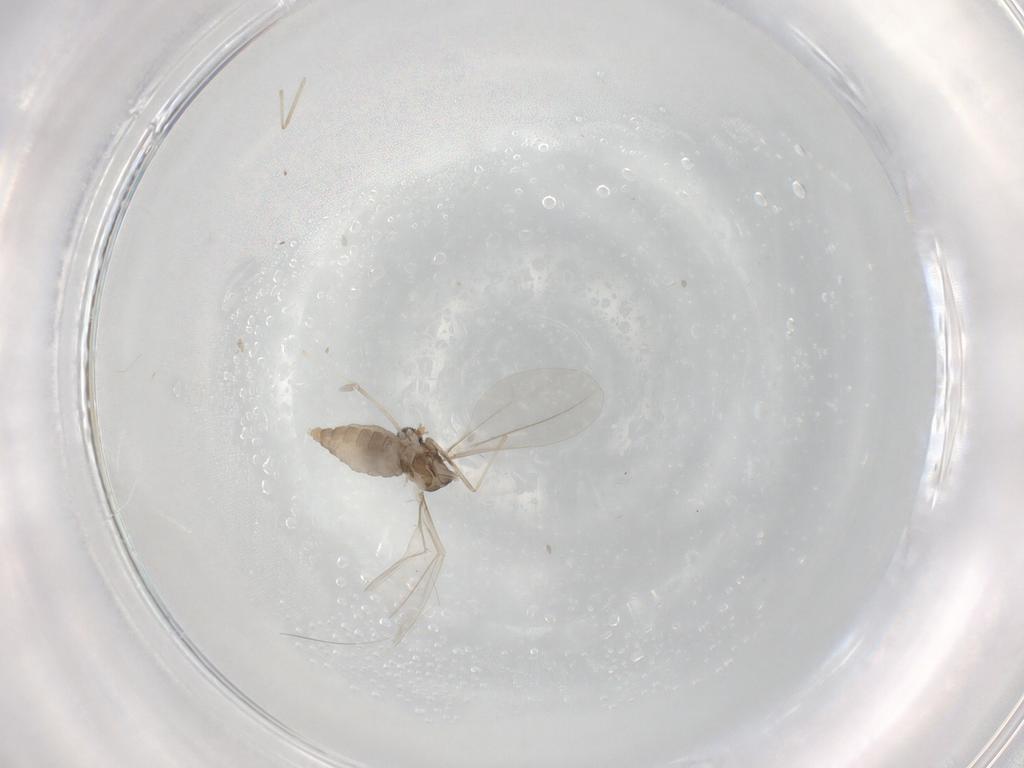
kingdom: Animalia
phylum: Arthropoda
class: Insecta
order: Diptera
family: Cecidomyiidae
